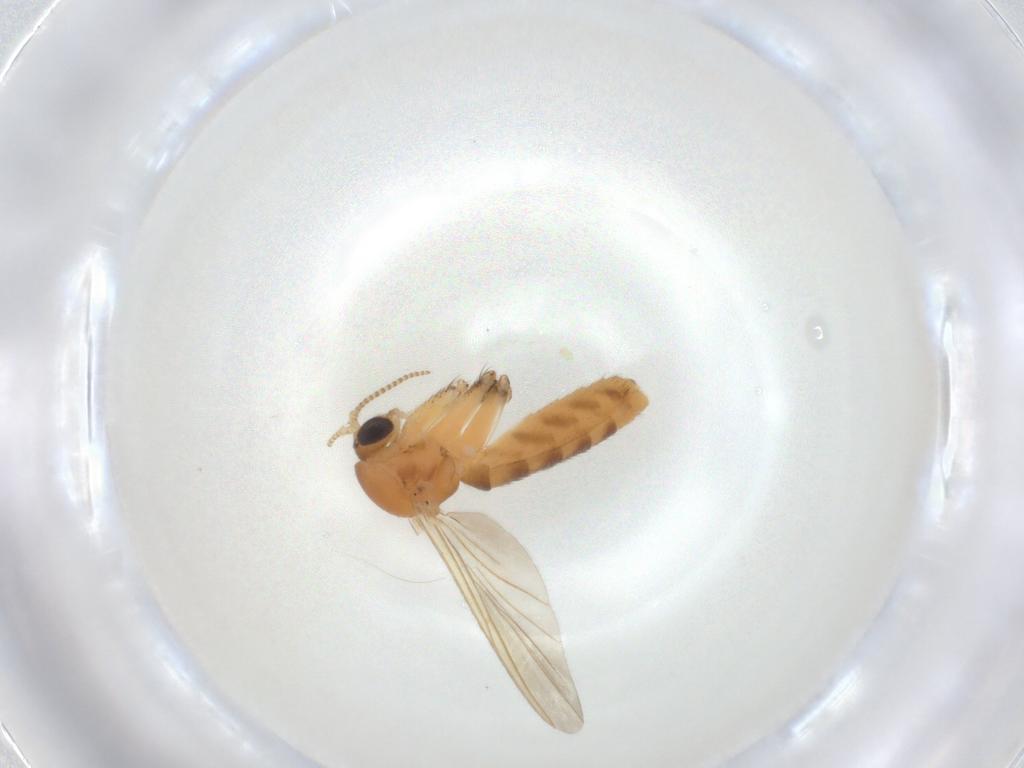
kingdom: Animalia
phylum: Arthropoda
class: Insecta
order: Diptera
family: Mycetophilidae
